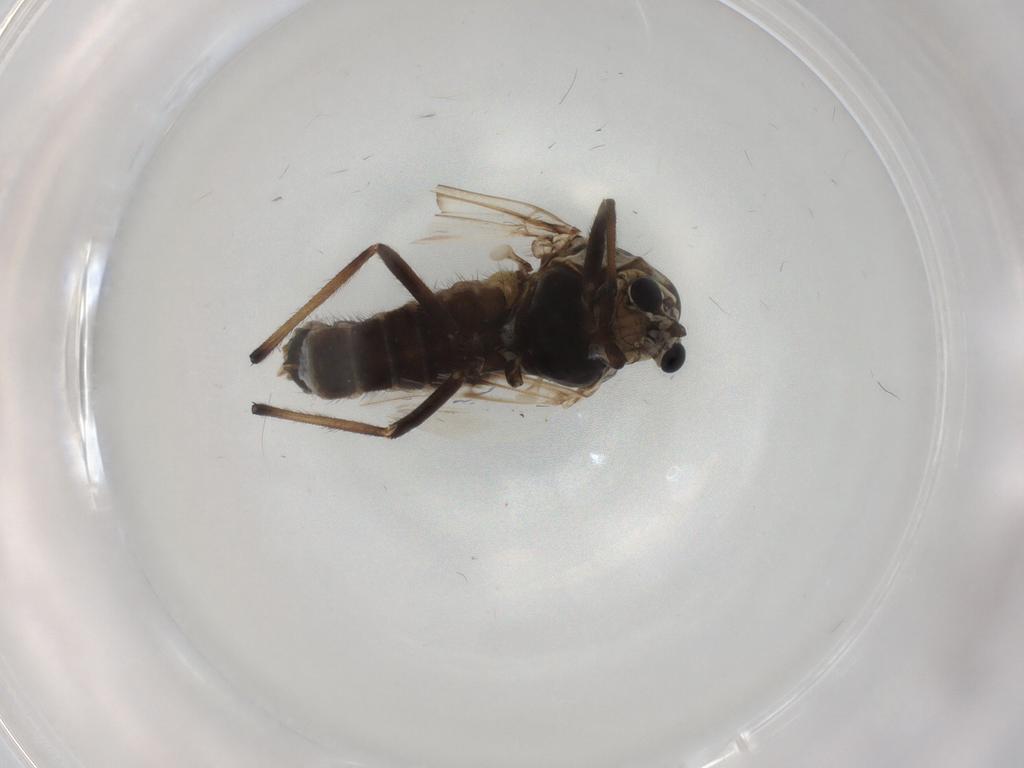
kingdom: Animalia
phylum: Arthropoda
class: Insecta
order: Diptera
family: Chironomidae
